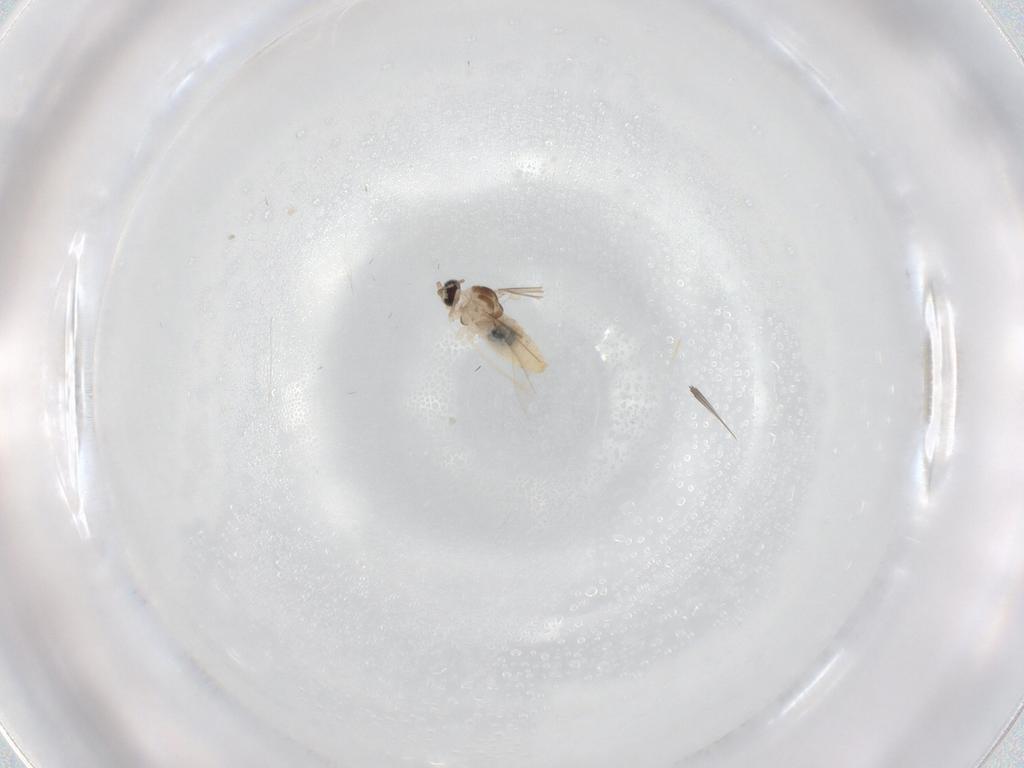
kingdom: Animalia
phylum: Arthropoda
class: Insecta
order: Diptera
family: Cecidomyiidae
